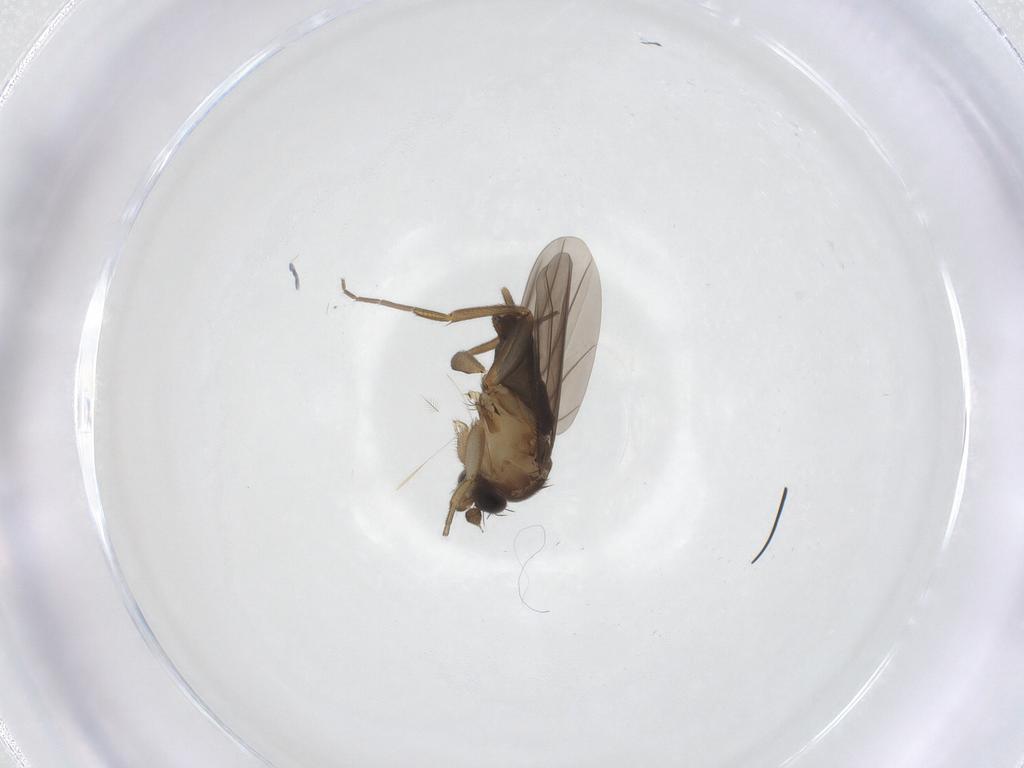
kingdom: Animalia
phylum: Arthropoda
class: Insecta
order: Diptera
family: Phoridae
